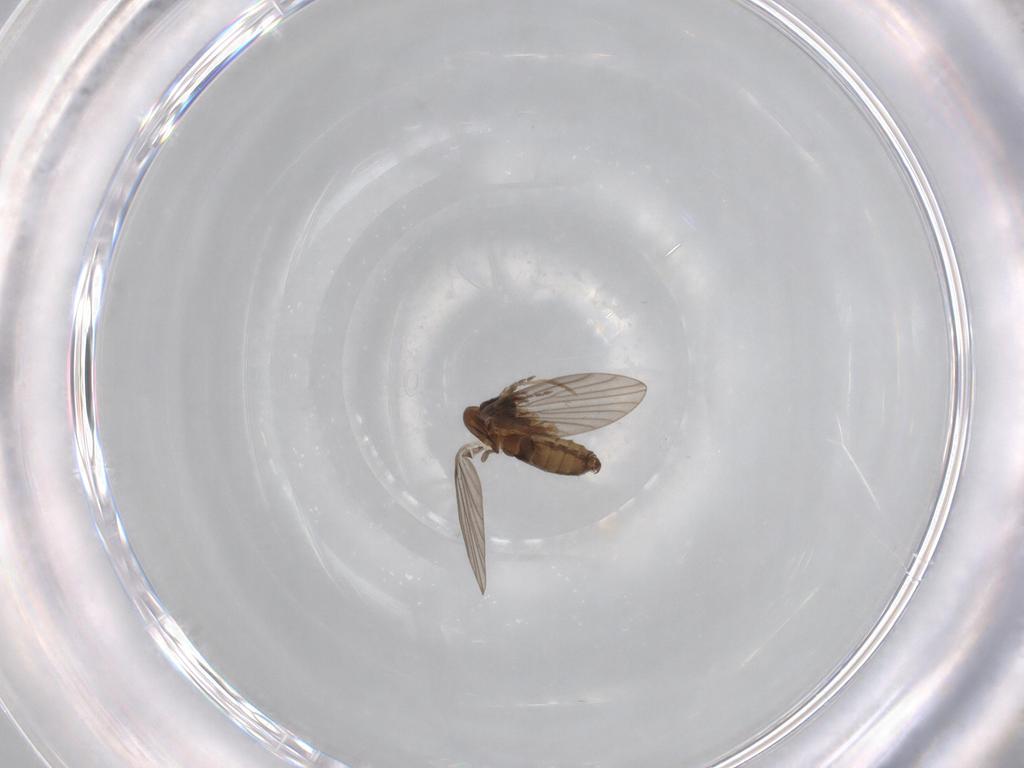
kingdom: Animalia
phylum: Arthropoda
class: Insecta
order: Diptera
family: Psychodidae
